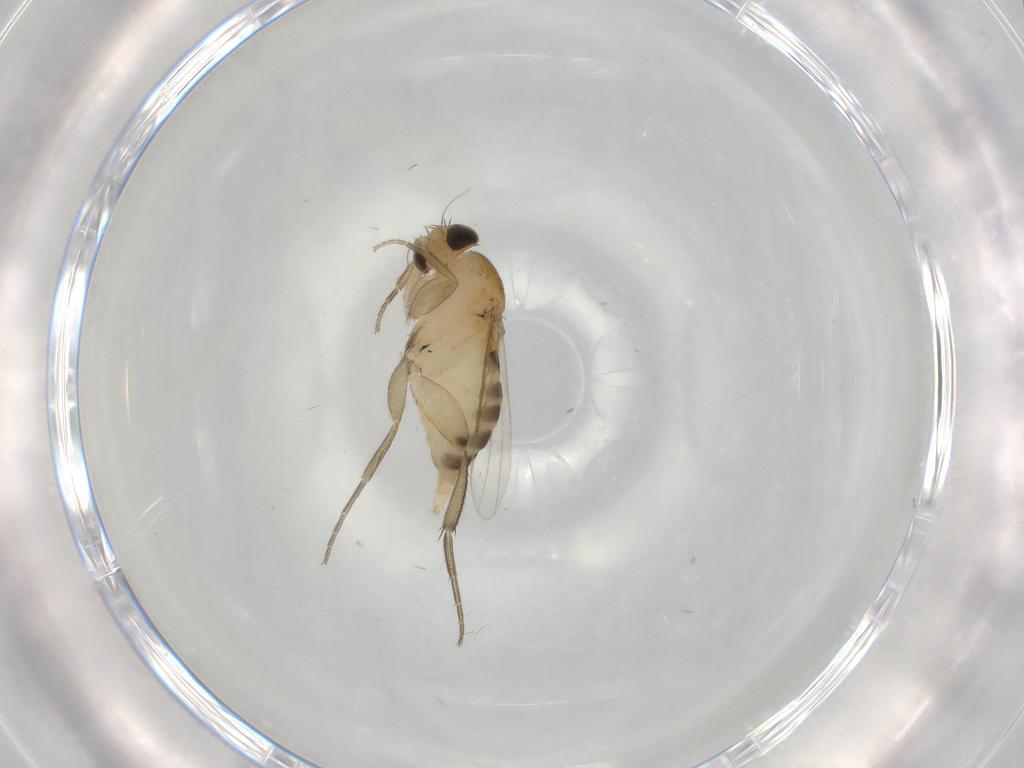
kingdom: Animalia
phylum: Arthropoda
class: Insecta
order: Diptera
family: Phoridae
